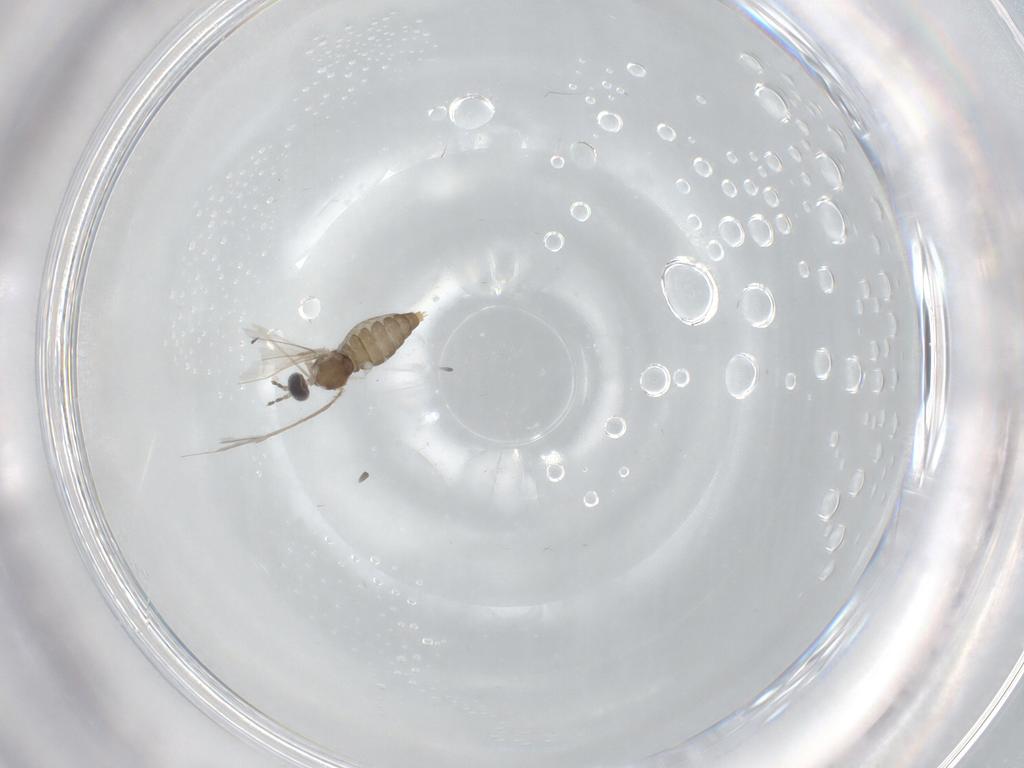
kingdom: Animalia
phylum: Arthropoda
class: Insecta
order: Diptera
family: Cecidomyiidae
